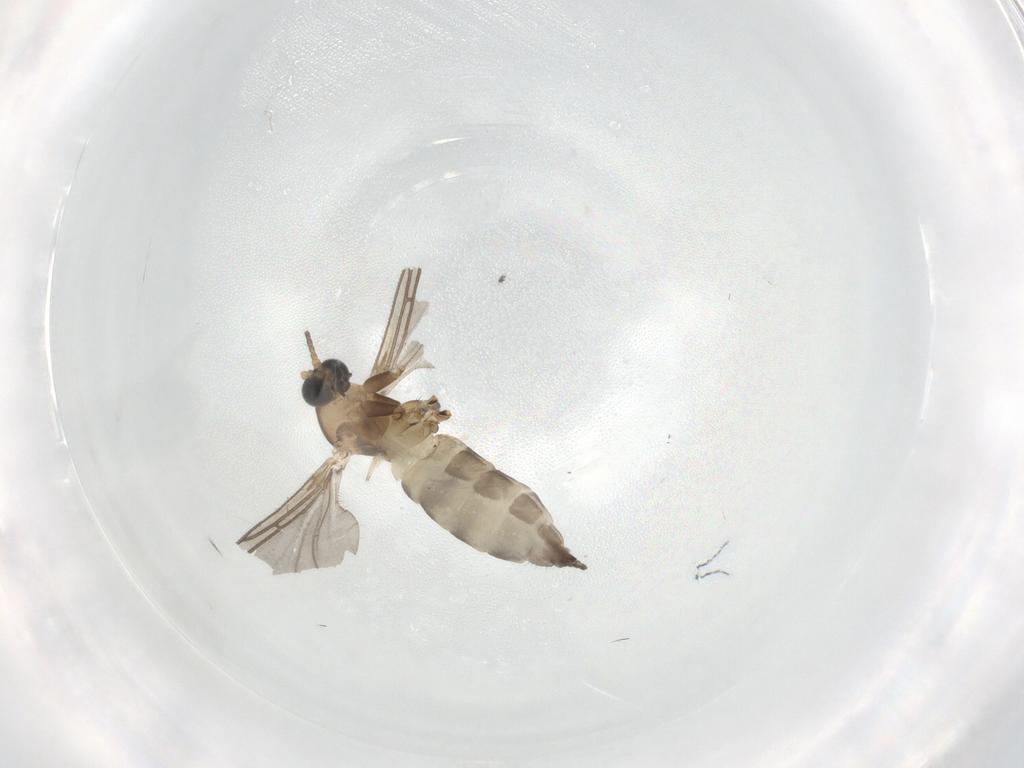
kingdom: Animalia
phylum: Arthropoda
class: Insecta
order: Diptera
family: Sciaridae
